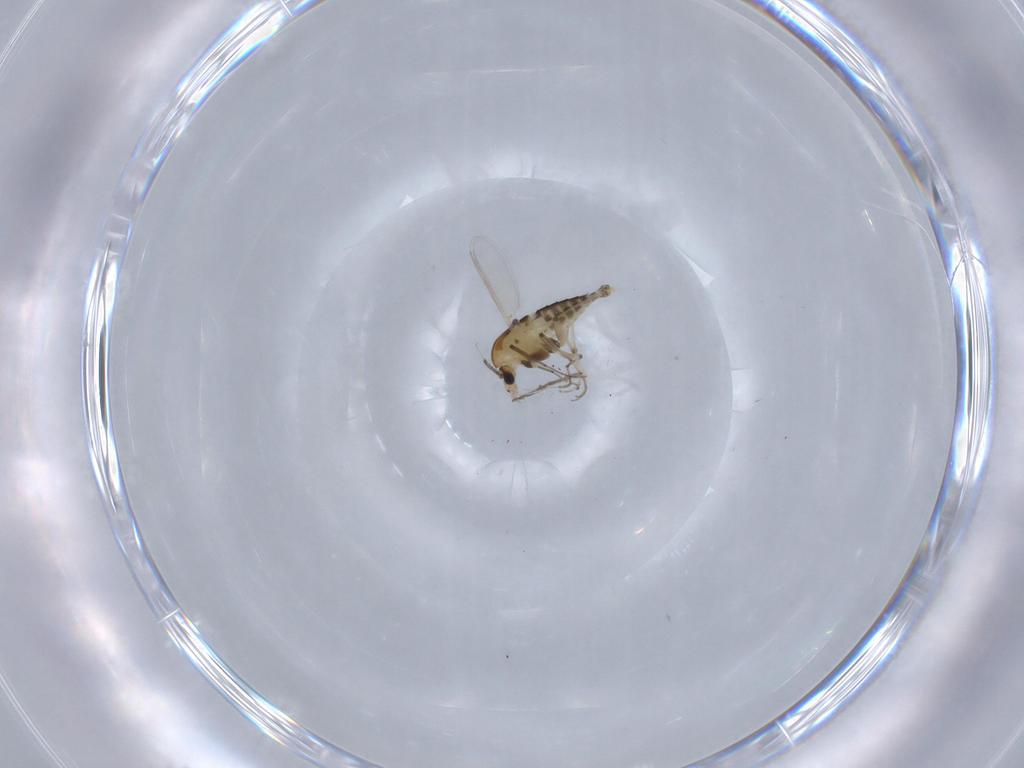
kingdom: Animalia
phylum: Arthropoda
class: Insecta
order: Diptera
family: Chironomidae
